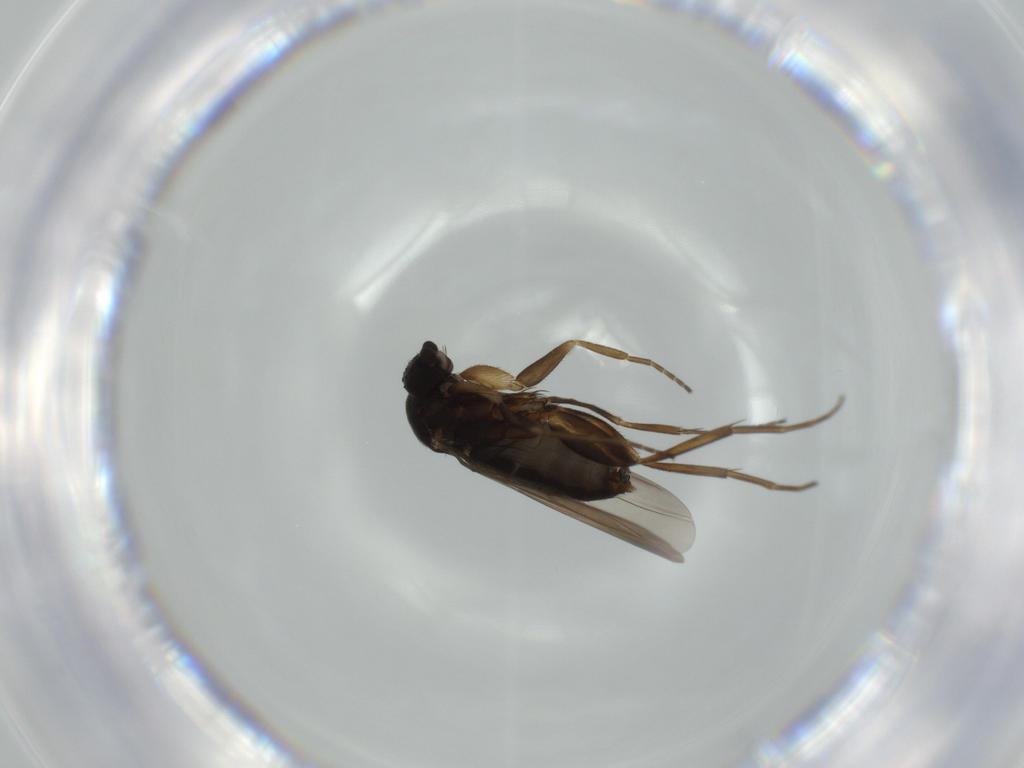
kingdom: Animalia
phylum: Arthropoda
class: Insecta
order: Diptera
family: Phoridae
